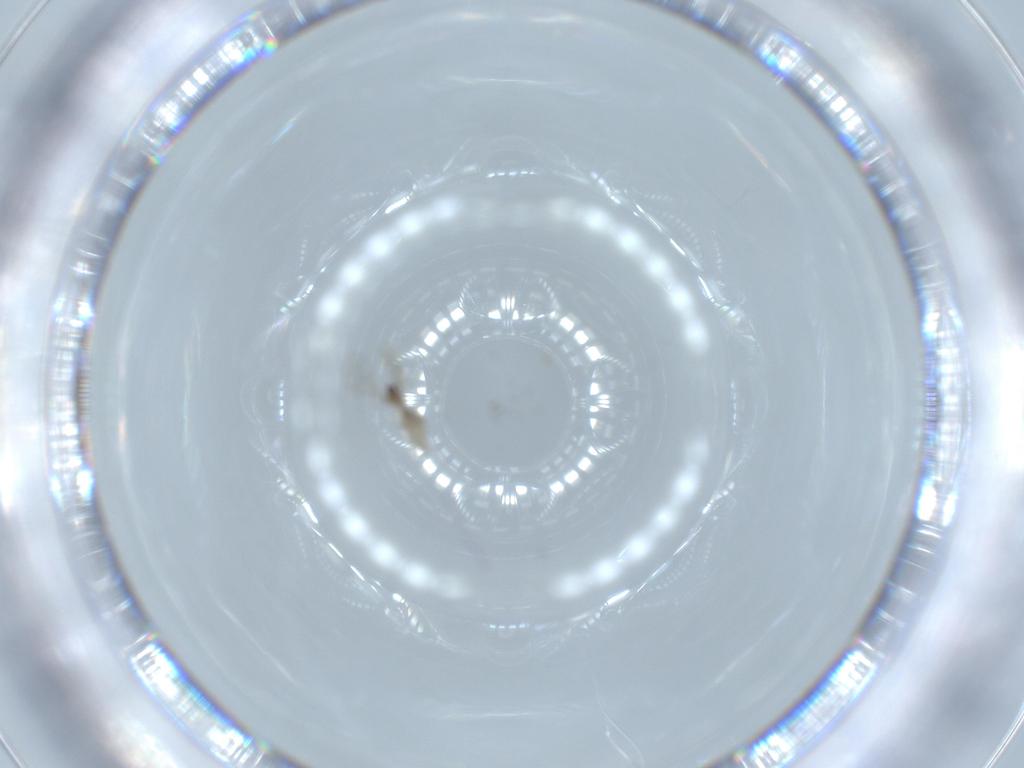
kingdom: Animalia
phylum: Arthropoda
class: Insecta
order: Diptera
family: Cecidomyiidae
